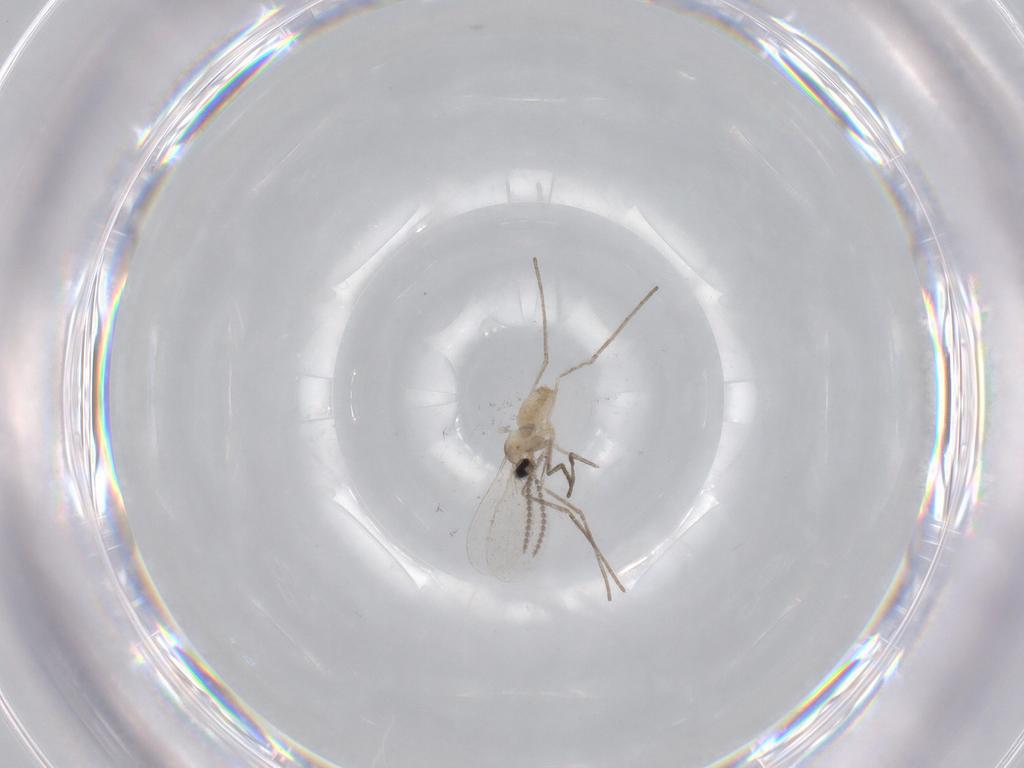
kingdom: Animalia
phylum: Arthropoda
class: Insecta
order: Diptera
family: Cecidomyiidae
